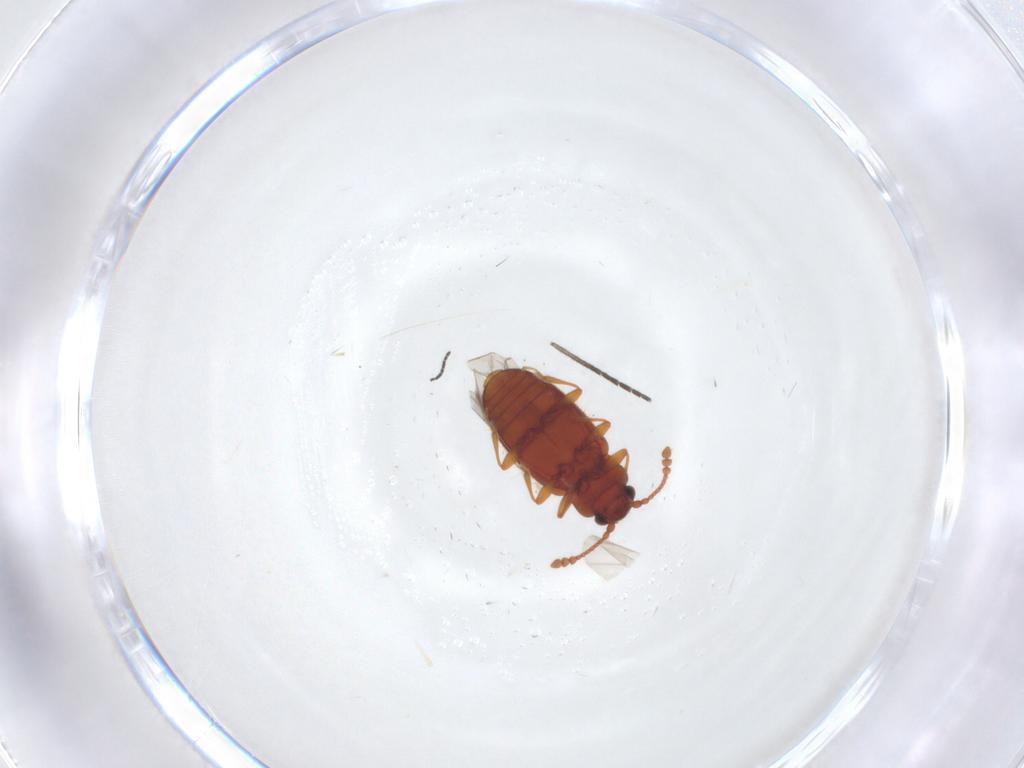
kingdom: Animalia
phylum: Arthropoda
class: Insecta
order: Coleoptera
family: Cryptophagidae
